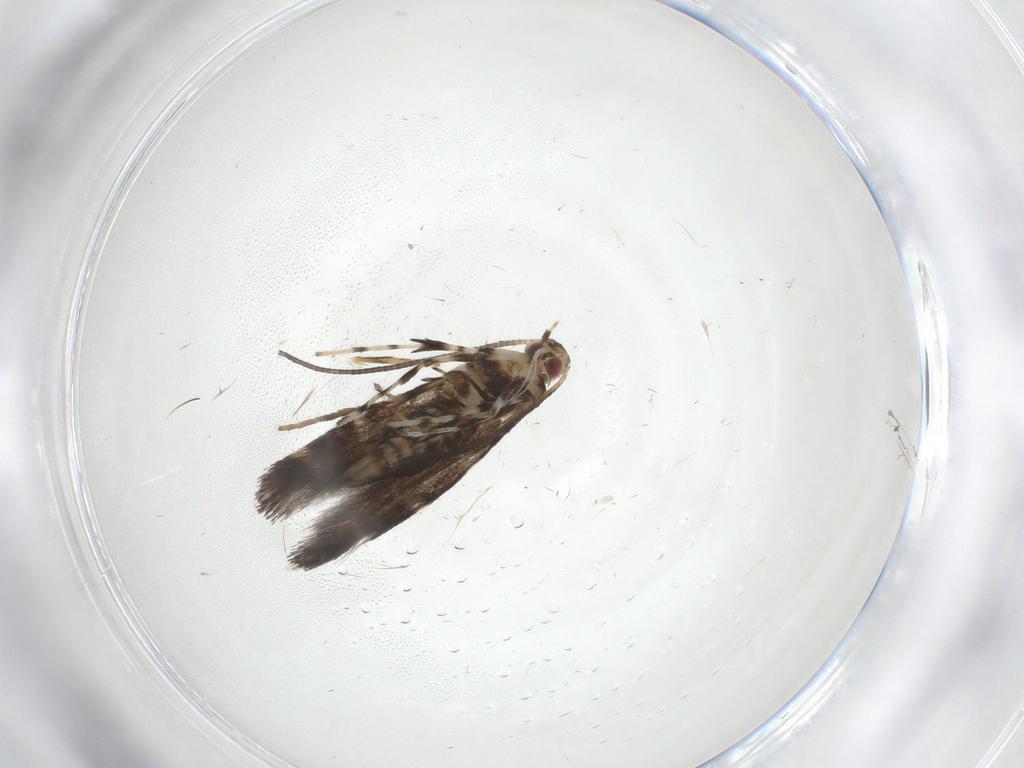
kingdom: Animalia
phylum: Arthropoda
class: Insecta
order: Lepidoptera
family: Gracillariidae
